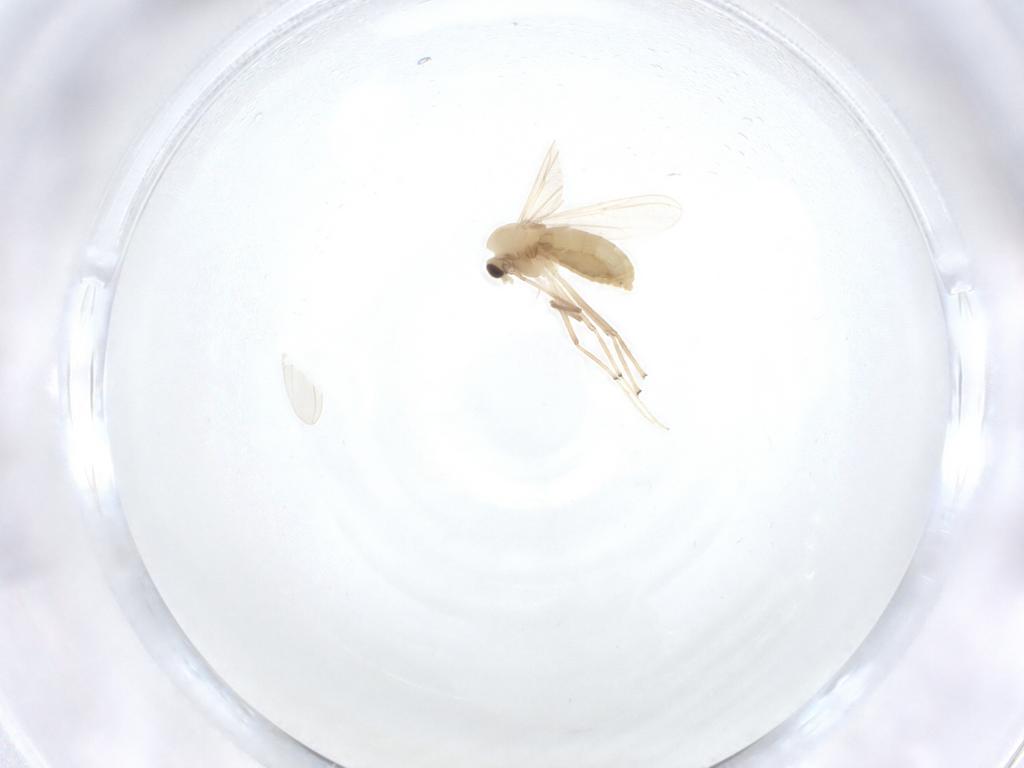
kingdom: Animalia
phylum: Arthropoda
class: Insecta
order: Diptera
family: Chironomidae
